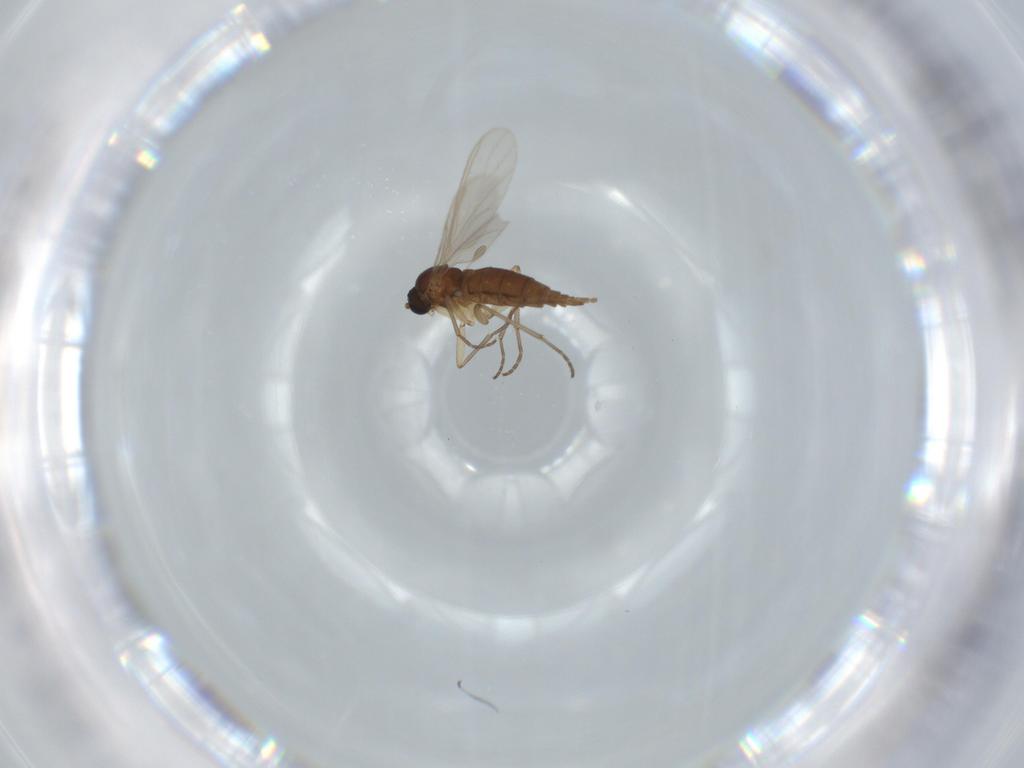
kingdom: Animalia
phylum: Arthropoda
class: Insecta
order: Diptera
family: Sciaridae
